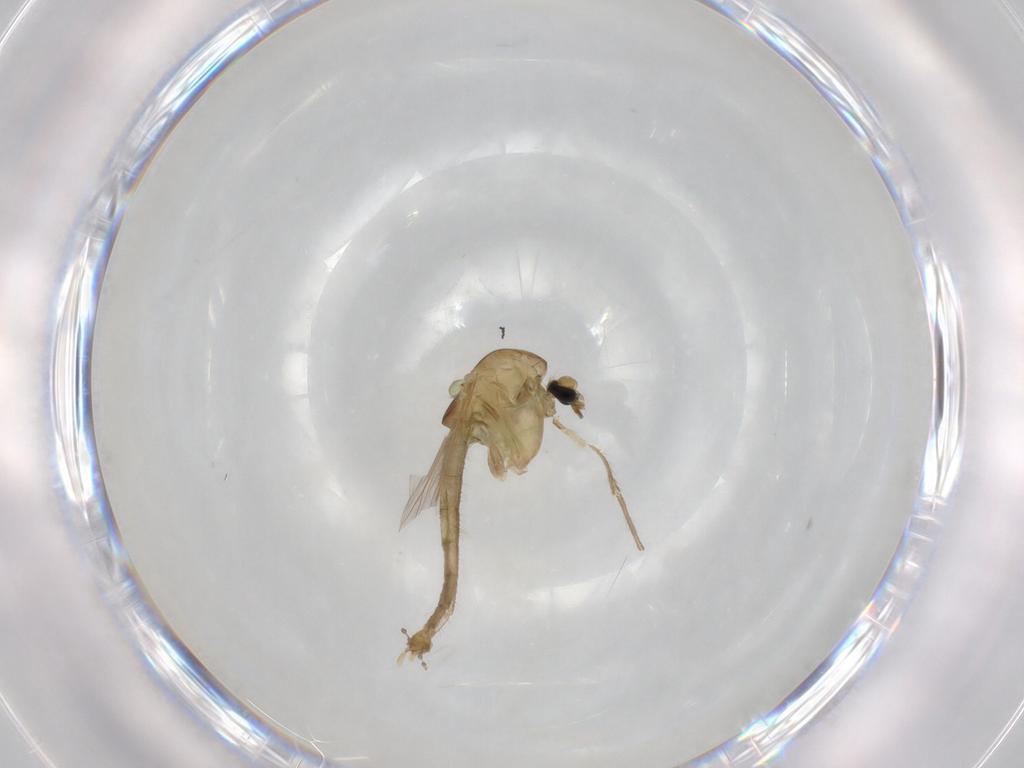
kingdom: Animalia
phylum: Arthropoda
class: Insecta
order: Diptera
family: Chironomidae
